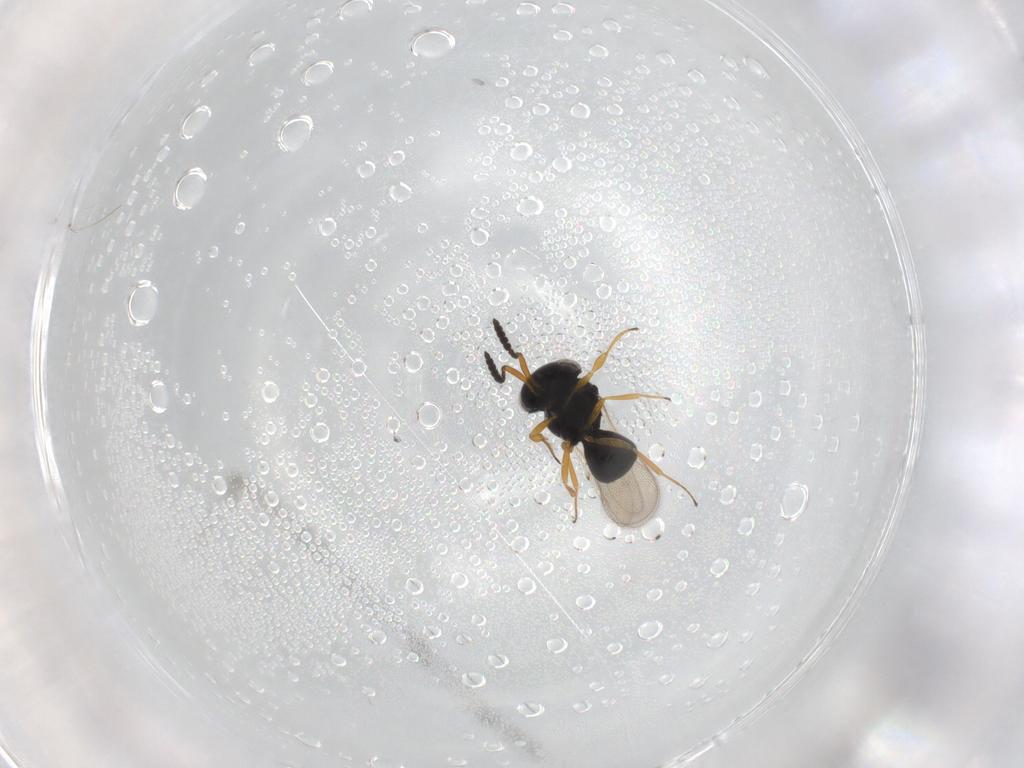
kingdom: Animalia
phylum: Arthropoda
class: Insecta
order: Hymenoptera
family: Scelionidae
